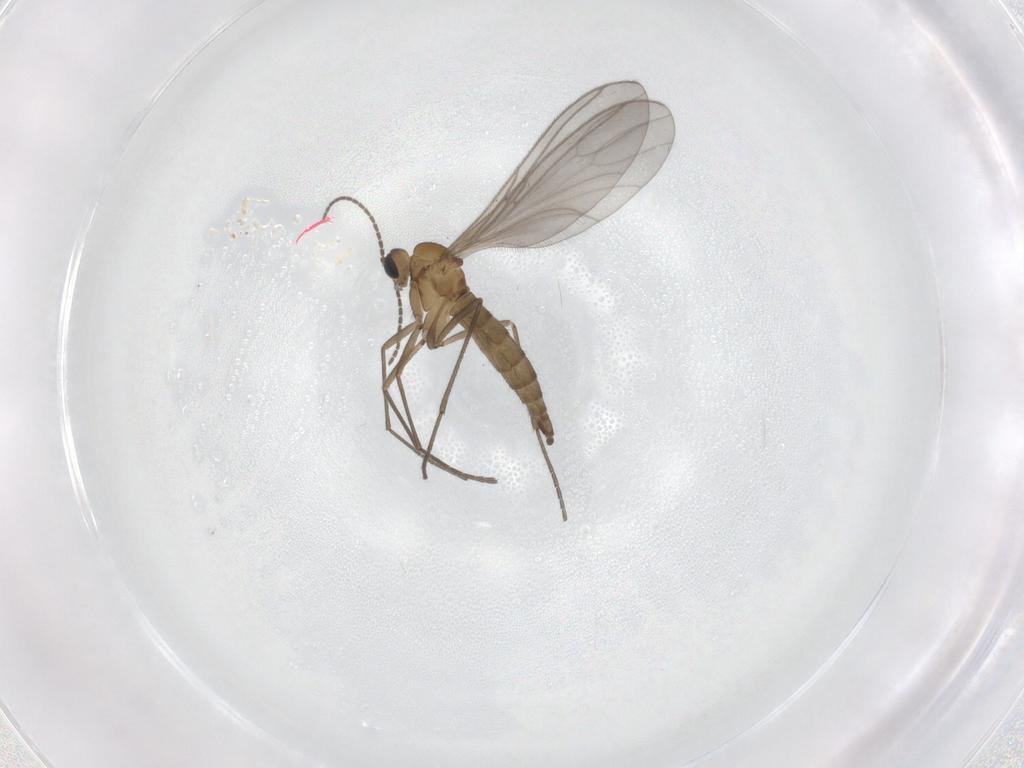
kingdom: Animalia
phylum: Arthropoda
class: Insecta
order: Diptera
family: Sciaridae
